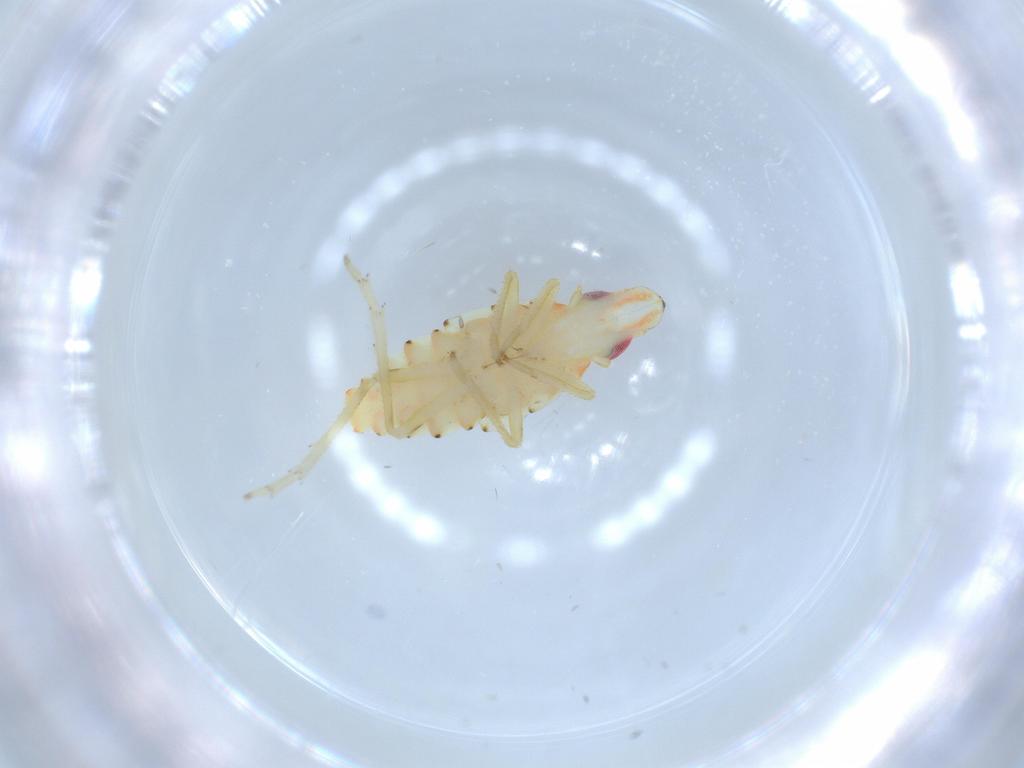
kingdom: Animalia
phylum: Arthropoda
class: Insecta
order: Hemiptera
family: Tropiduchidae
